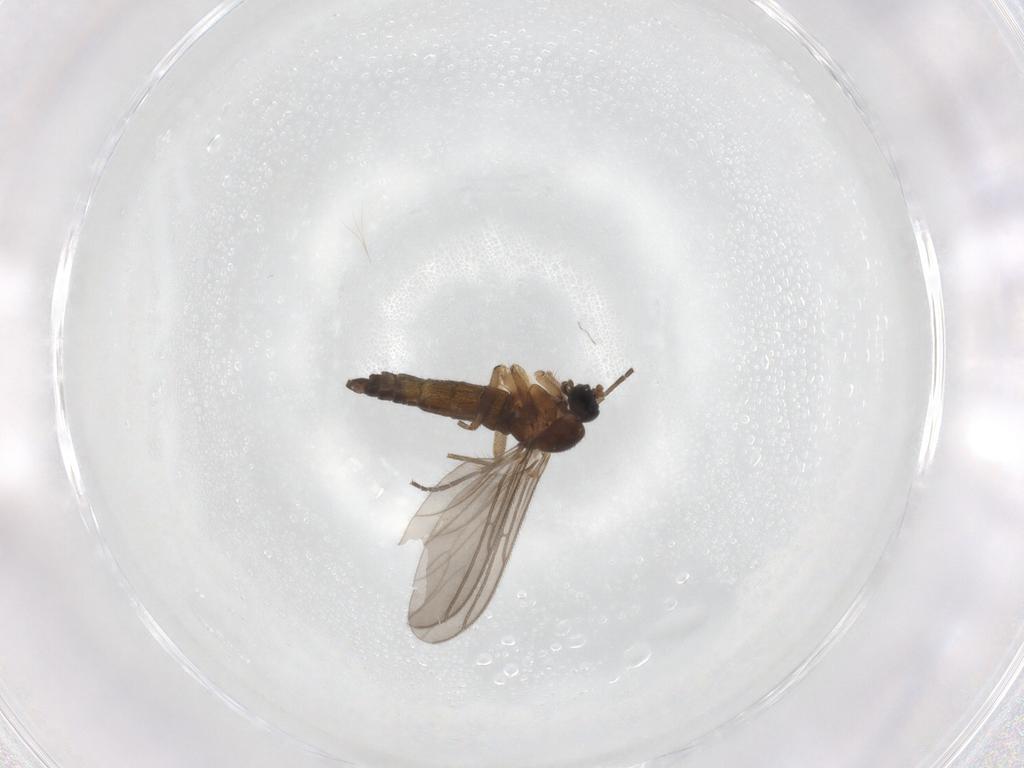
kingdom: Animalia
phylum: Arthropoda
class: Insecta
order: Diptera
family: Sciaridae
